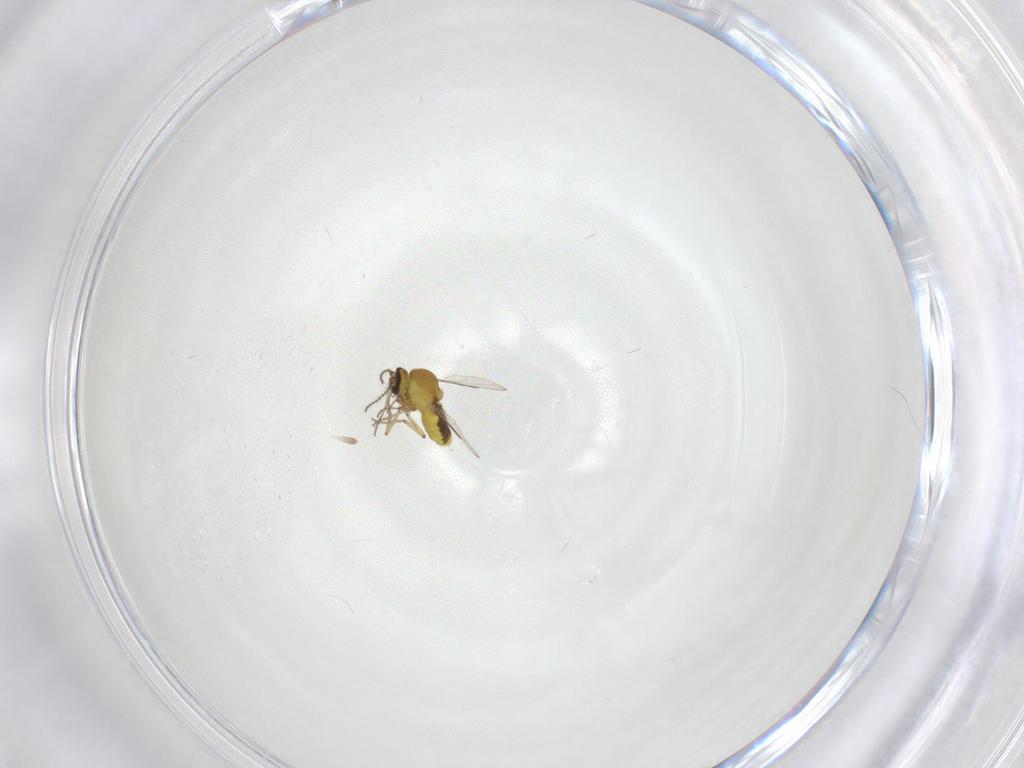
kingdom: Animalia
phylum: Arthropoda
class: Insecta
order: Diptera
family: Ceratopogonidae
